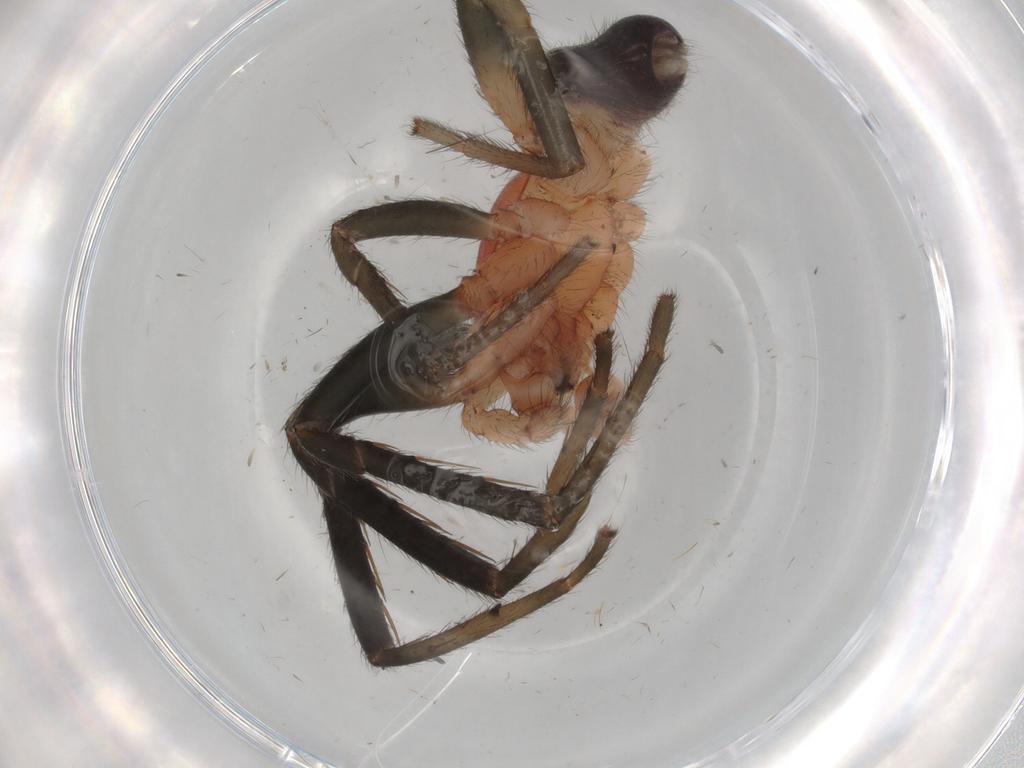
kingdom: Animalia
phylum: Arthropoda
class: Arachnida
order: Araneae
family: Segestriidae
